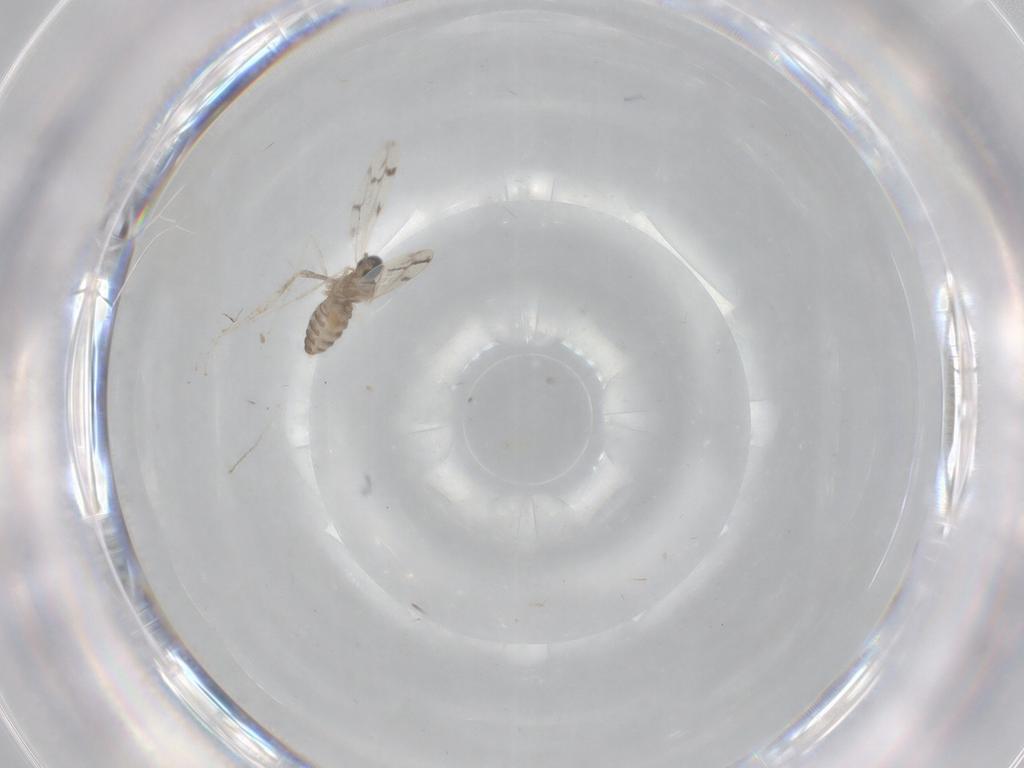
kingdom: Animalia
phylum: Arthropoda
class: Insecta
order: Diptera
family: Cecidomyiidae
